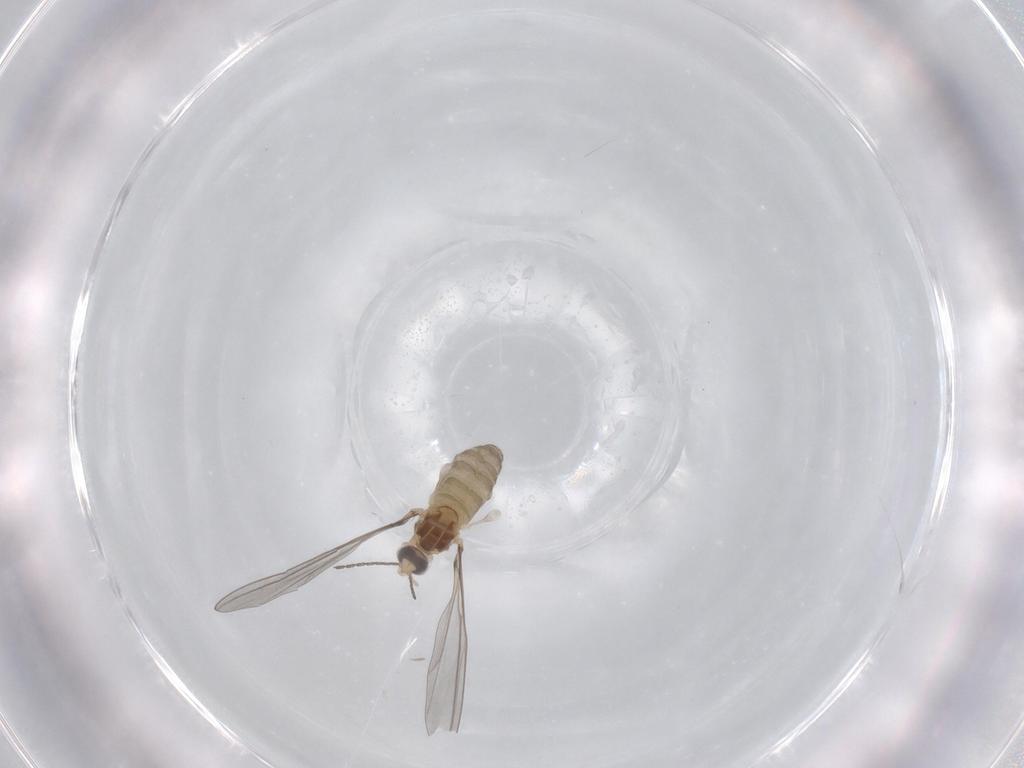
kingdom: Animalia
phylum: Arthropoda
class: Insecta
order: Diptera
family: Cecidomyiidae
